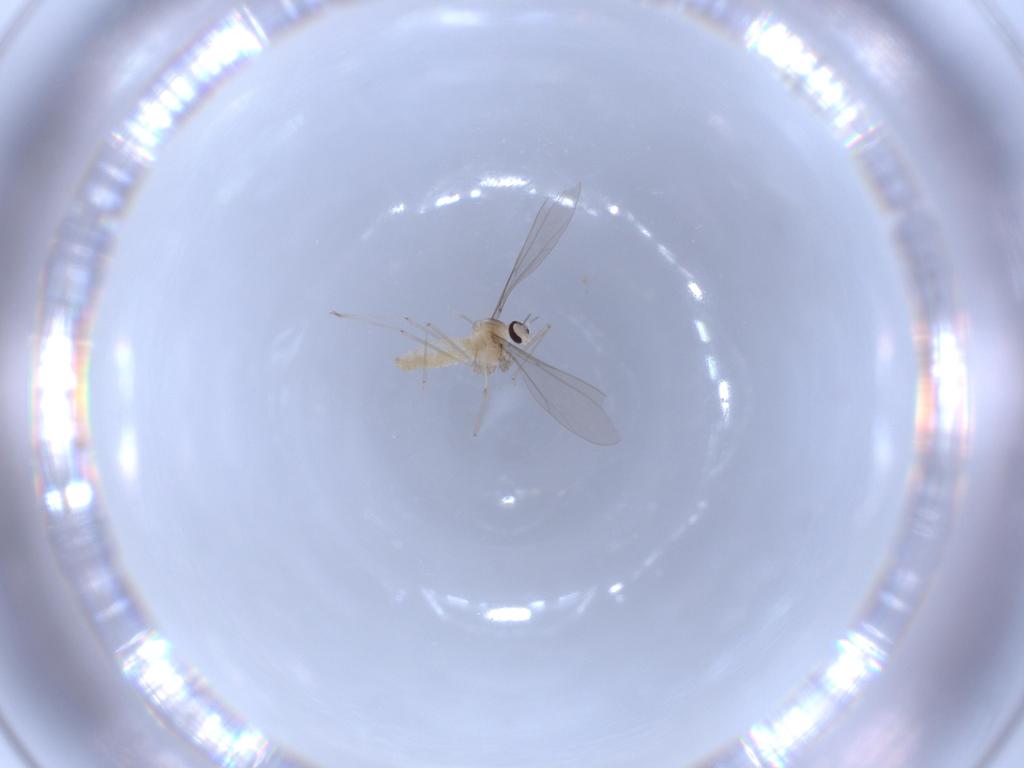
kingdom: Animalia
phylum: Arthropoda
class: Insecta
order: Diptera
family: Cecidomyiidae
